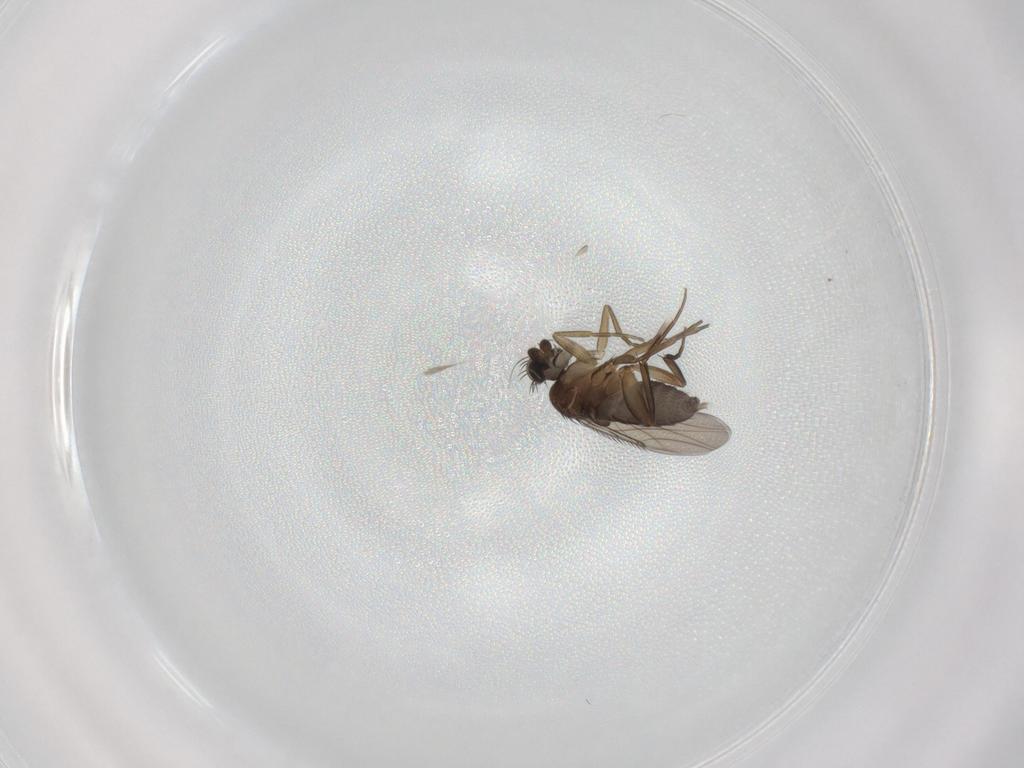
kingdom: Animalia
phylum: Arthropoda
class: Insecta
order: Diptera
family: Phoridae
